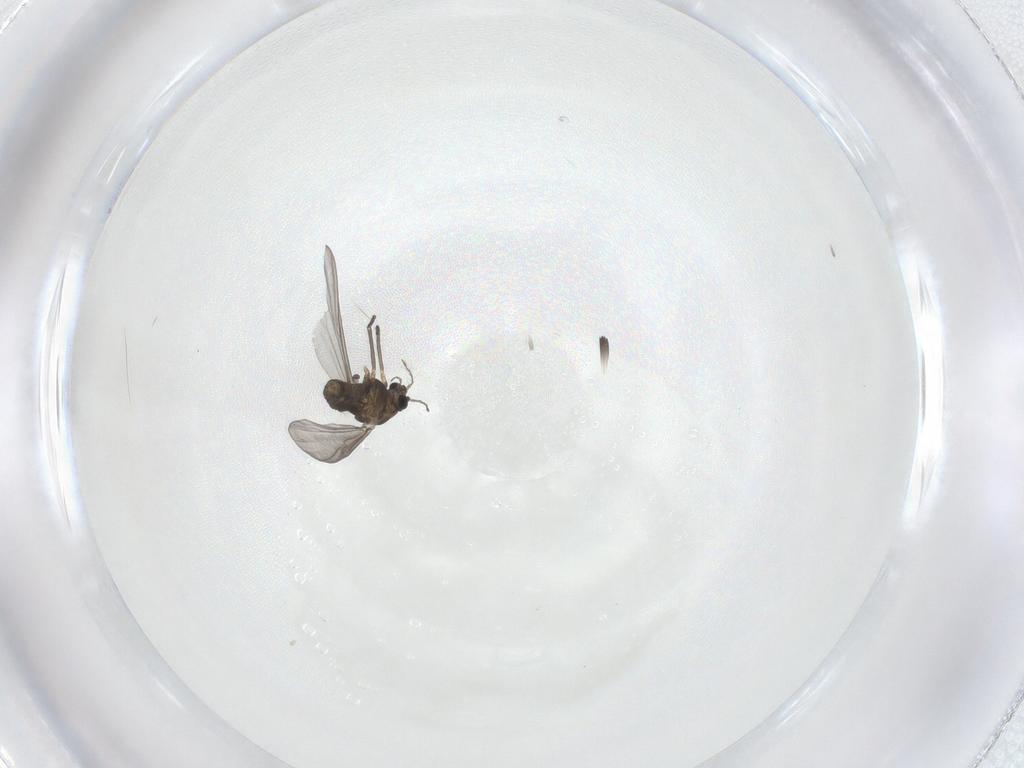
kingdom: Animalia
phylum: Arthropoda
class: Insecta
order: Diptera
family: Chironomidae
